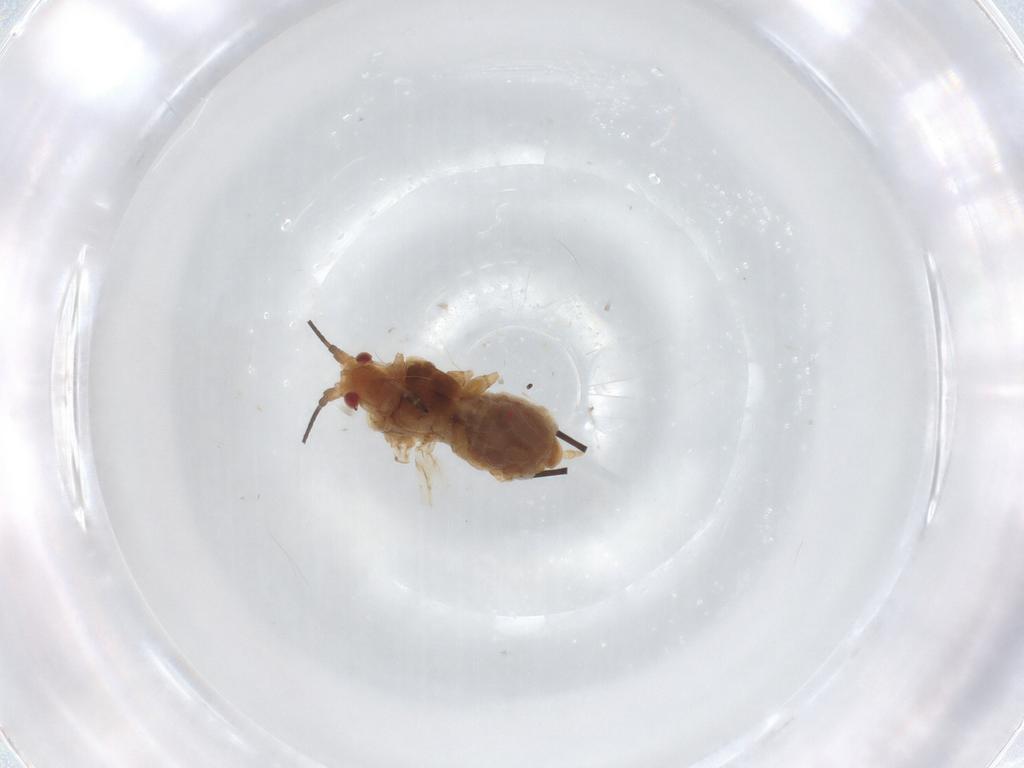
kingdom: Animalia
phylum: Arthropoda
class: Insecta
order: Hemiptera
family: Aphididae
